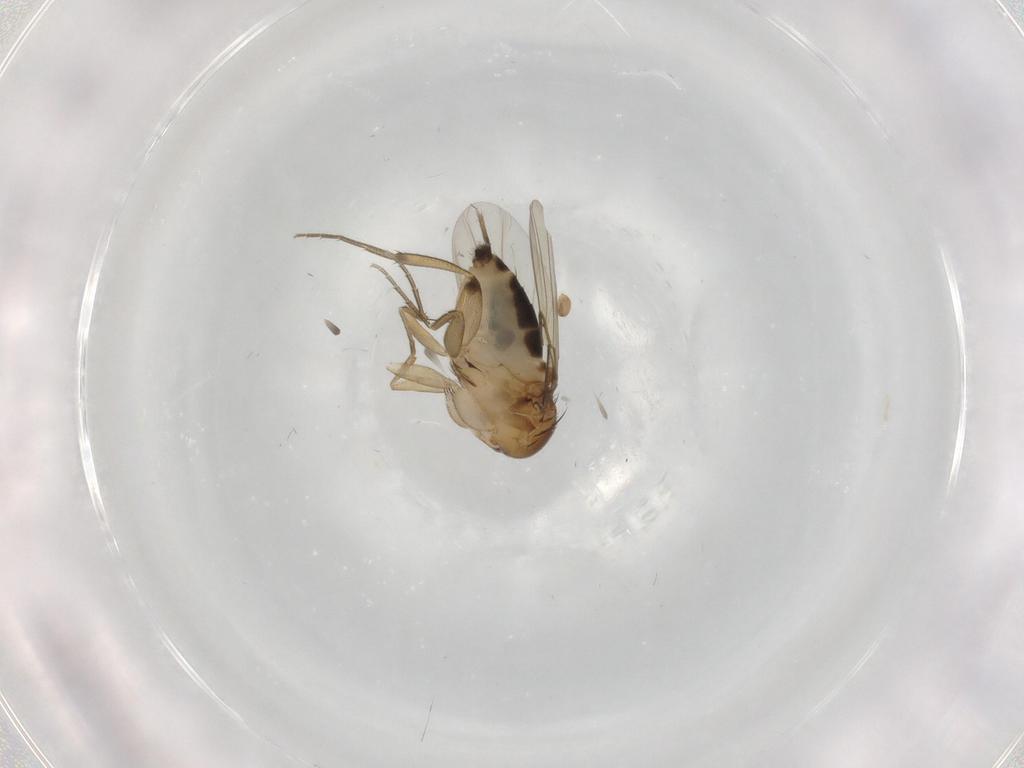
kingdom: Animalia
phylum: Arthropoda
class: Insecta
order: Diptera
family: Cecidomyiidae
